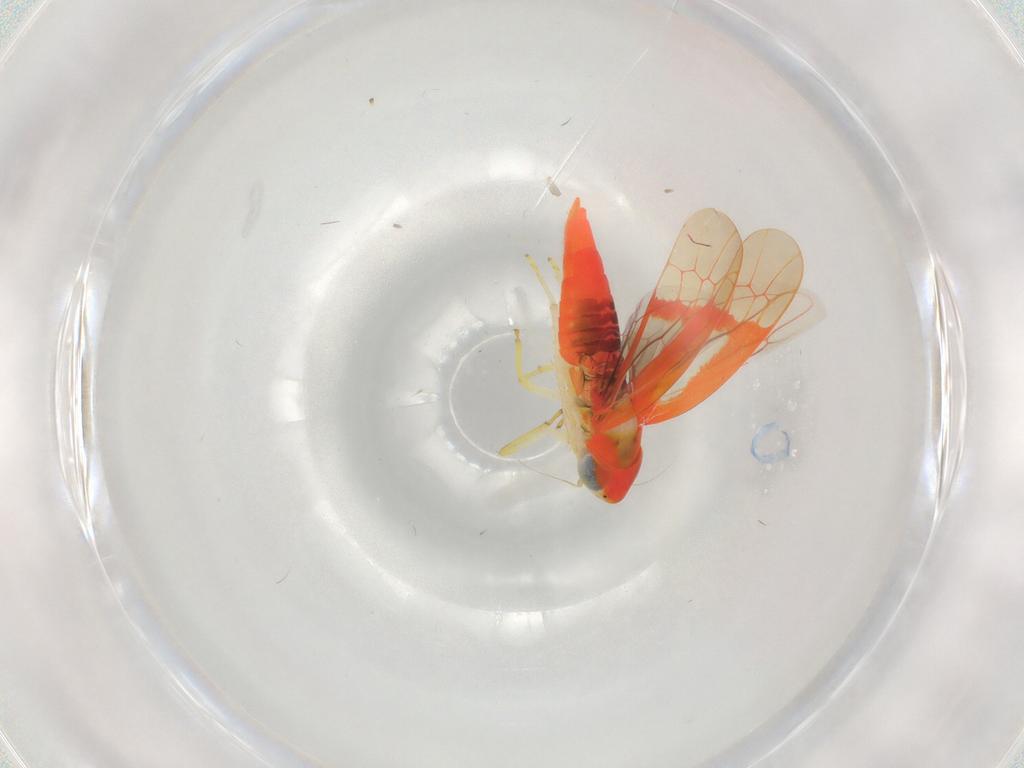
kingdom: Animalia
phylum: Arthropoda
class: Insecta
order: Hemiptera
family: Cicadellidae
